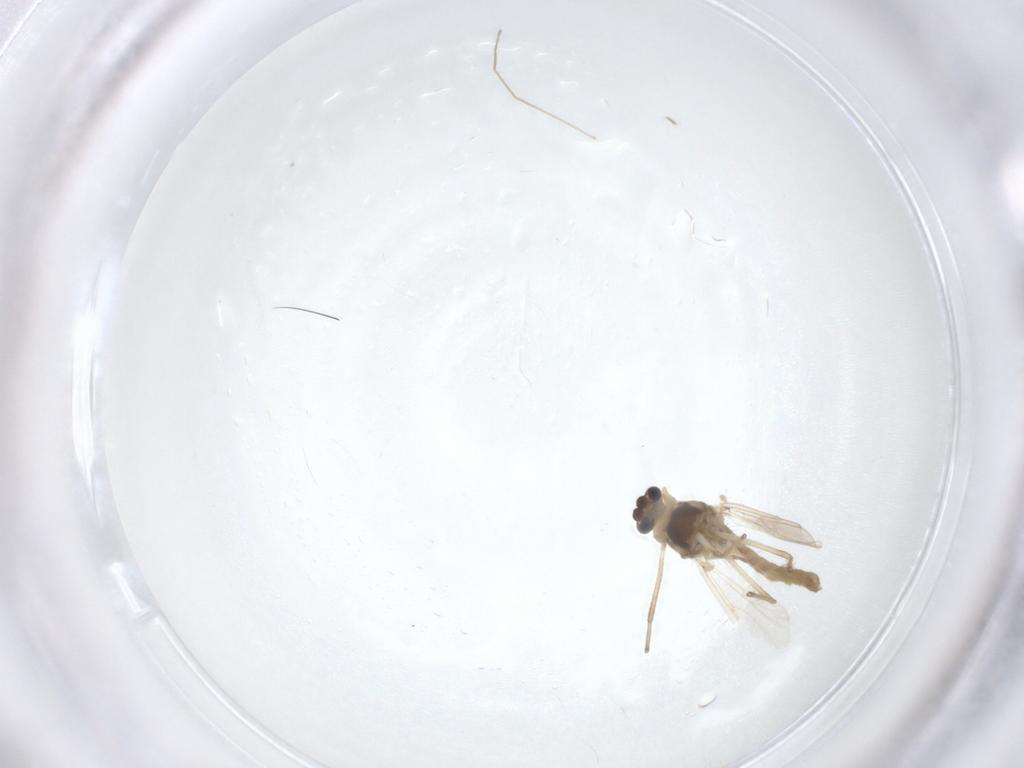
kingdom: Animalia
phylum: Arthropoda
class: Insecta
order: Diptera
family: Chironomidae
